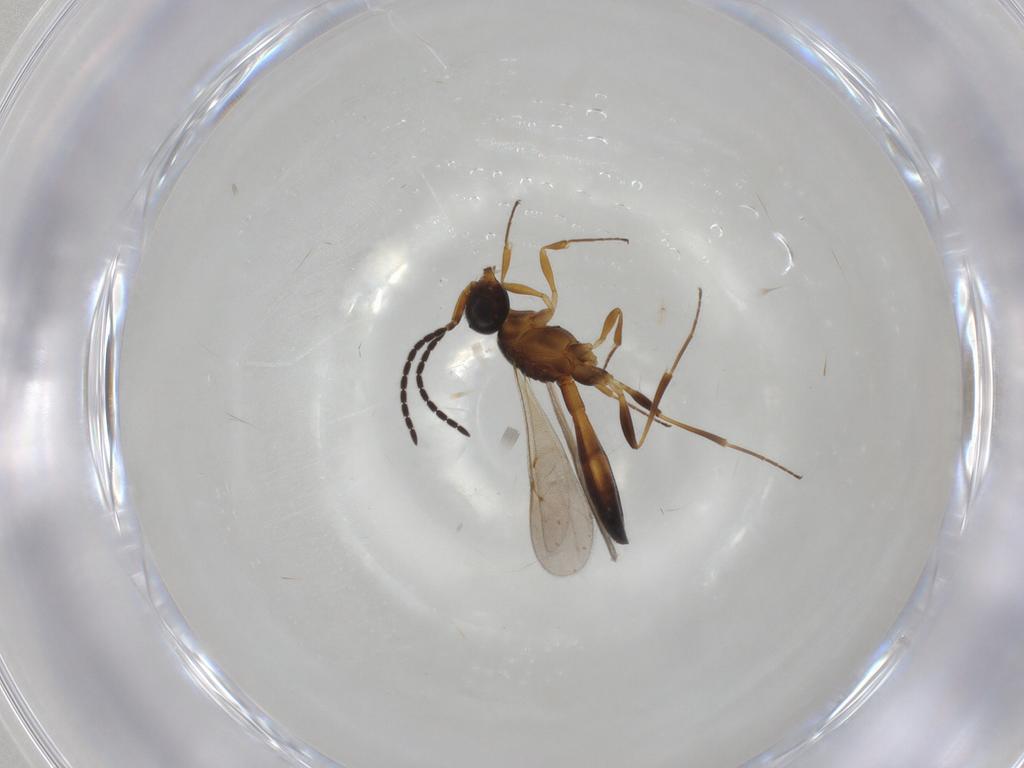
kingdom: Animalia
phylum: Arthropoda
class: Insecta
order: Hymenoptera
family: Scelionidae
